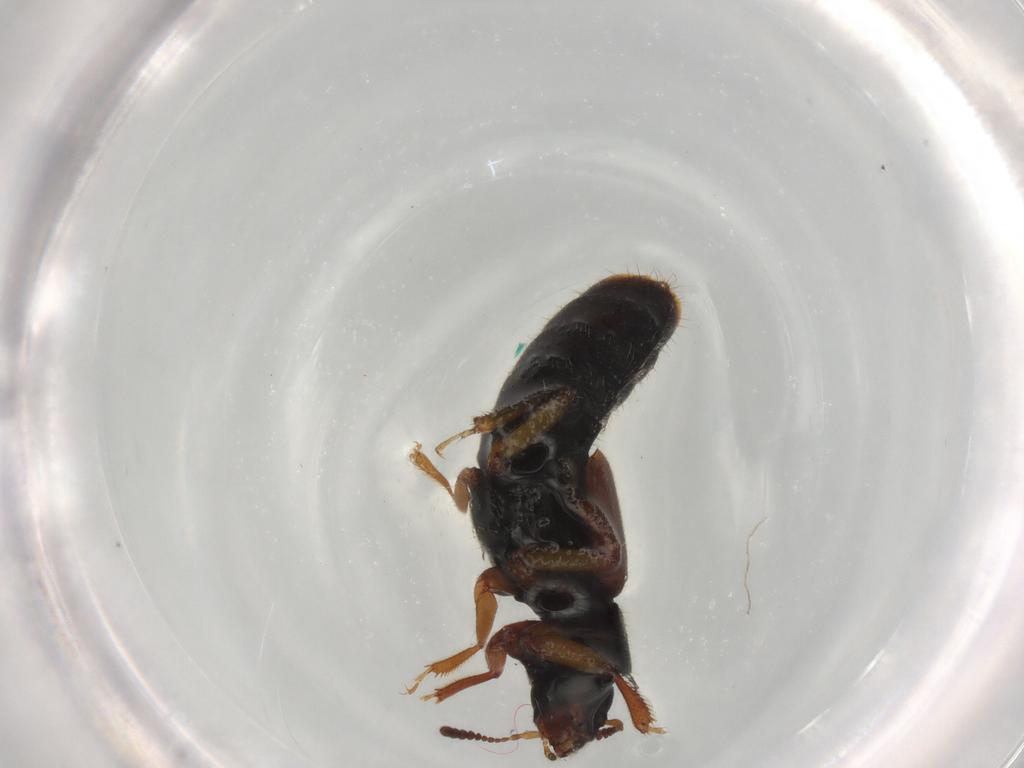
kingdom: Animalia
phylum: Arthropoda
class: Insecta
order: Coleoptera
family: Staphylinidae
